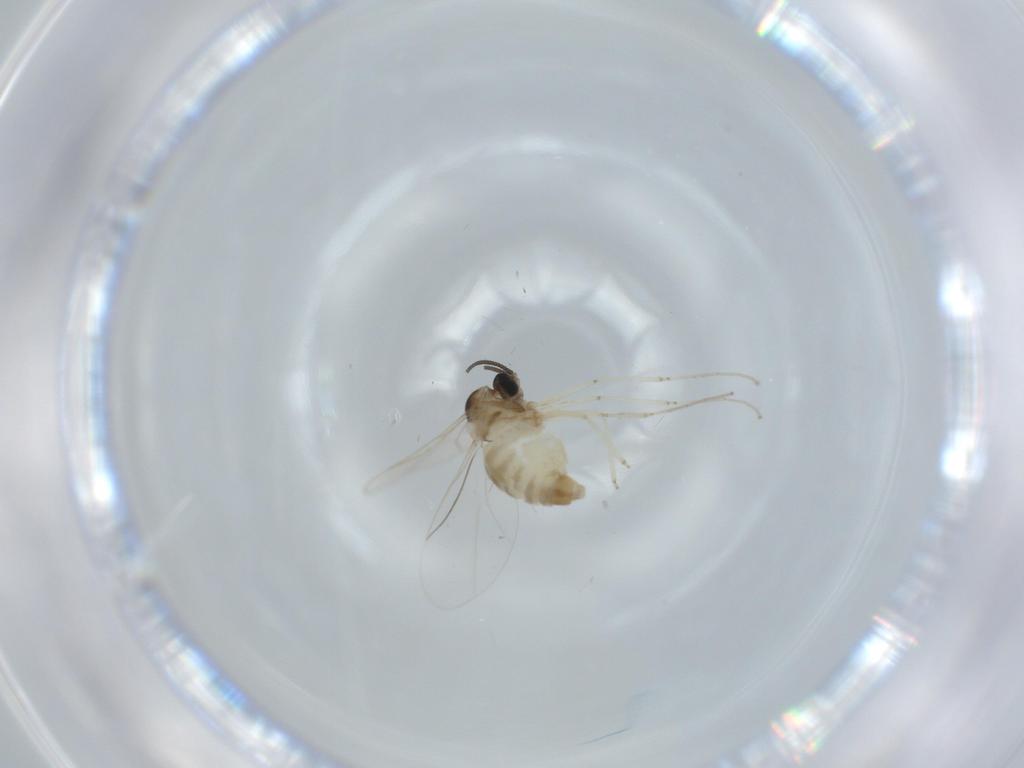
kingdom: Animalia
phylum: Arthropoda
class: Insecta
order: Diptera
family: Cecidomyiidae
